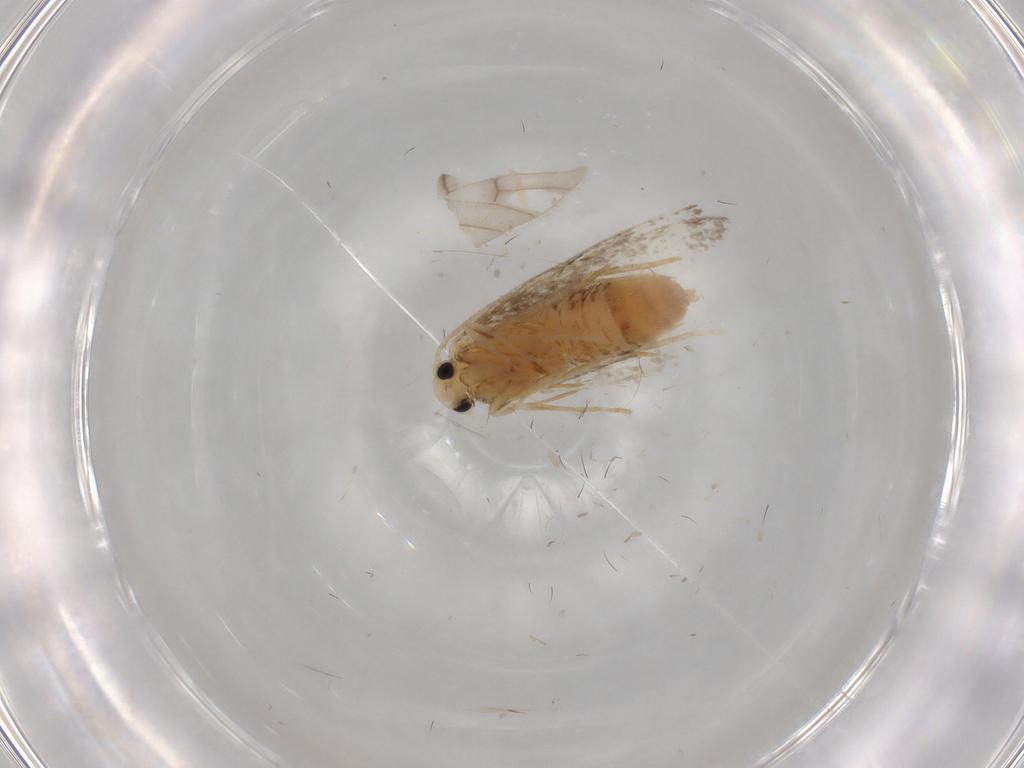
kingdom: Animalia
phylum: Arthropoda
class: Insecta
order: Lepidoptera
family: Psychidae
